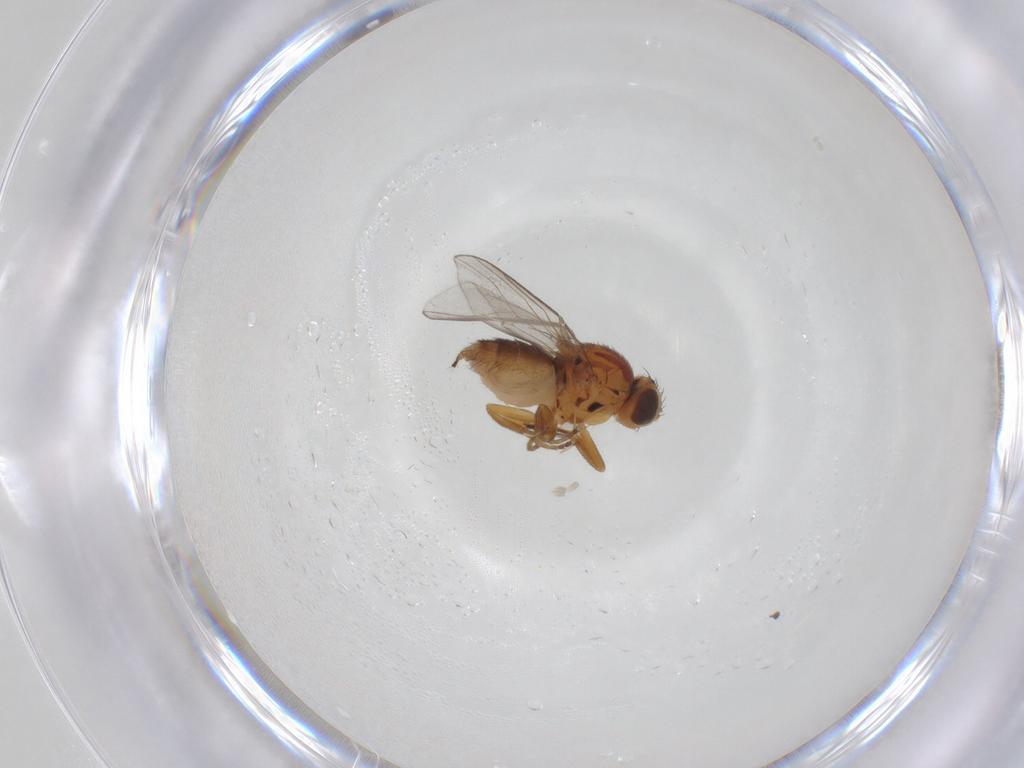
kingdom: Animalia
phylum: Arthropoda
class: Insecta
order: Diptera
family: Chloropidae
